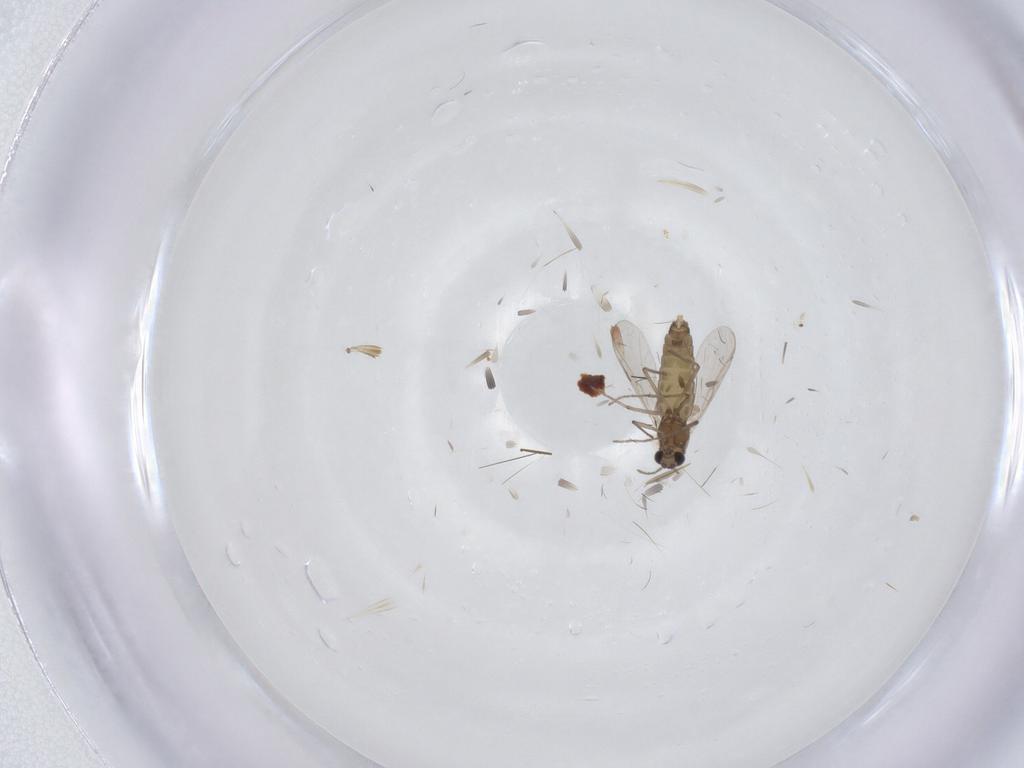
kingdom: Animalia
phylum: Arthropoda
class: Insecta
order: Diptera
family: Chironomidae
